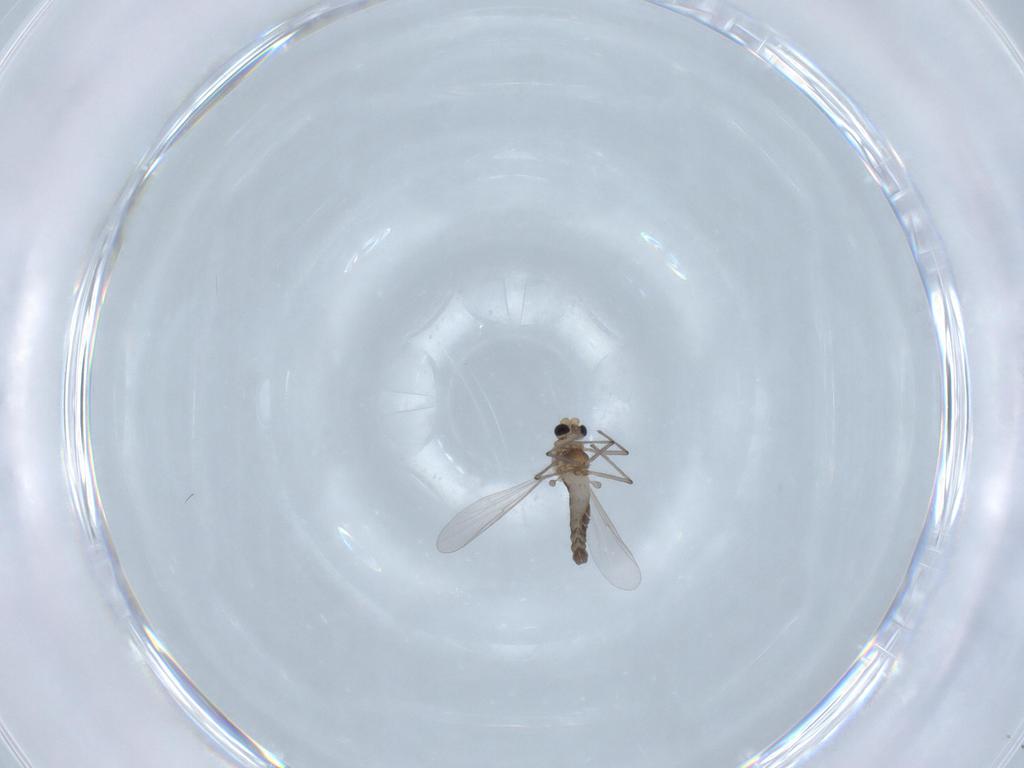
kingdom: Animalia
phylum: Arthropoda
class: Insecta
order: Diptera
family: Chironomidae
